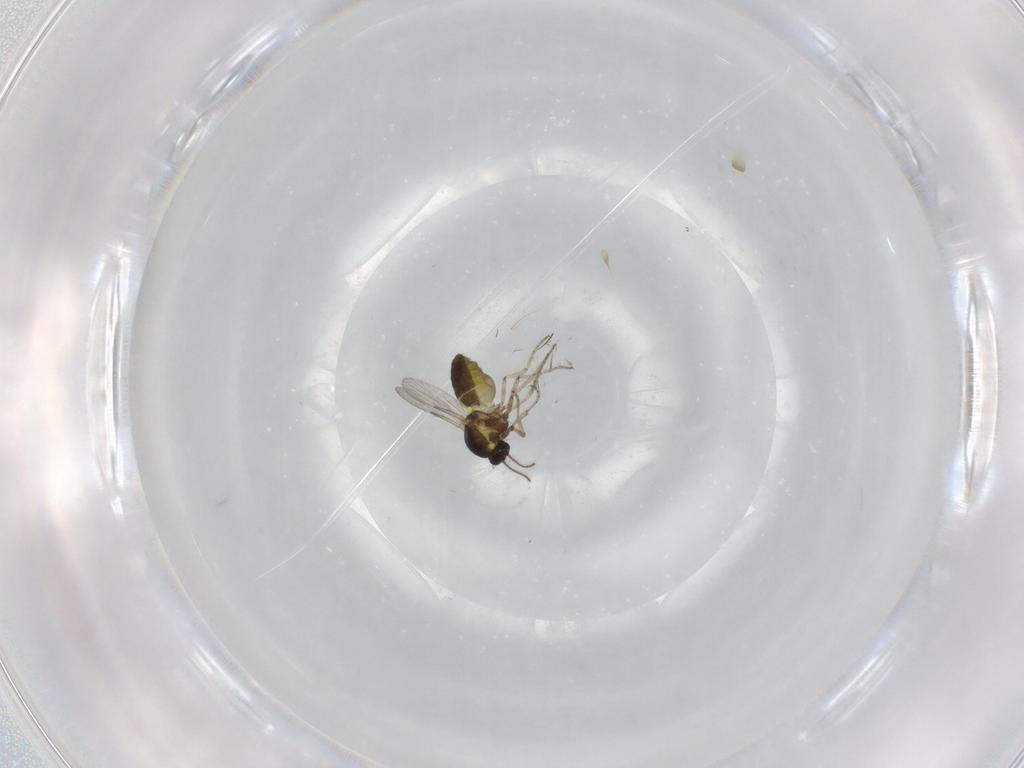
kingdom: Animalia
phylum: Arthropoda
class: Insecta
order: Diptera
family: Ceratopogonidae
